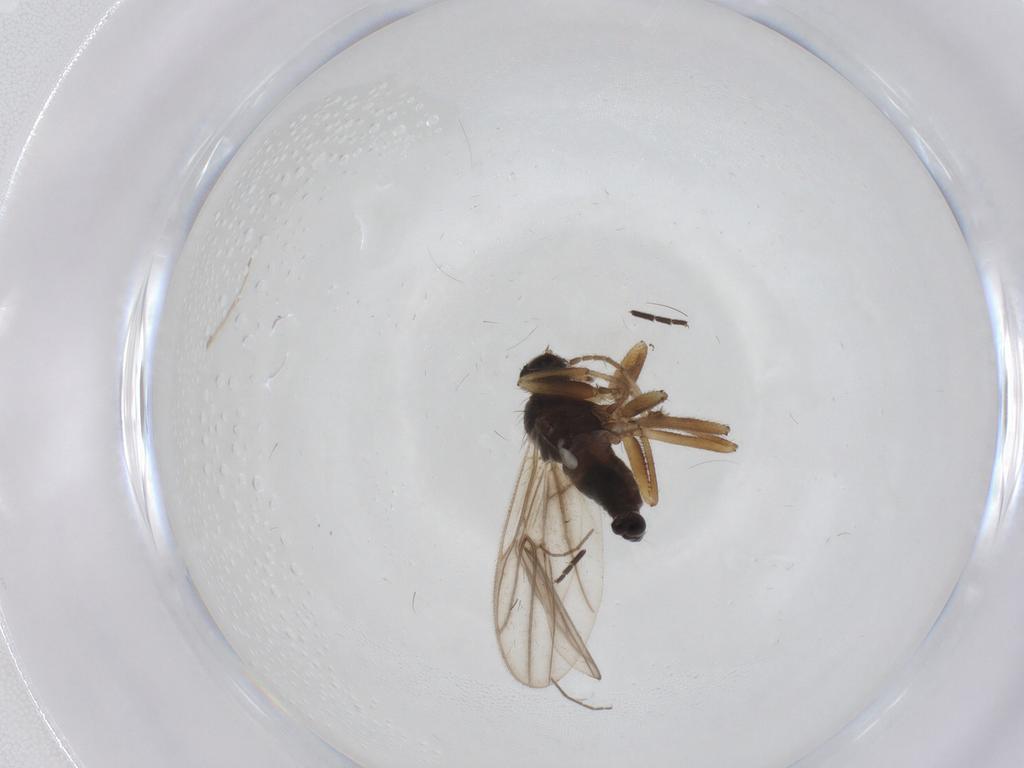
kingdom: Animalia
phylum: Arthropoda
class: Insecta
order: Diptera
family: Hybotidae
